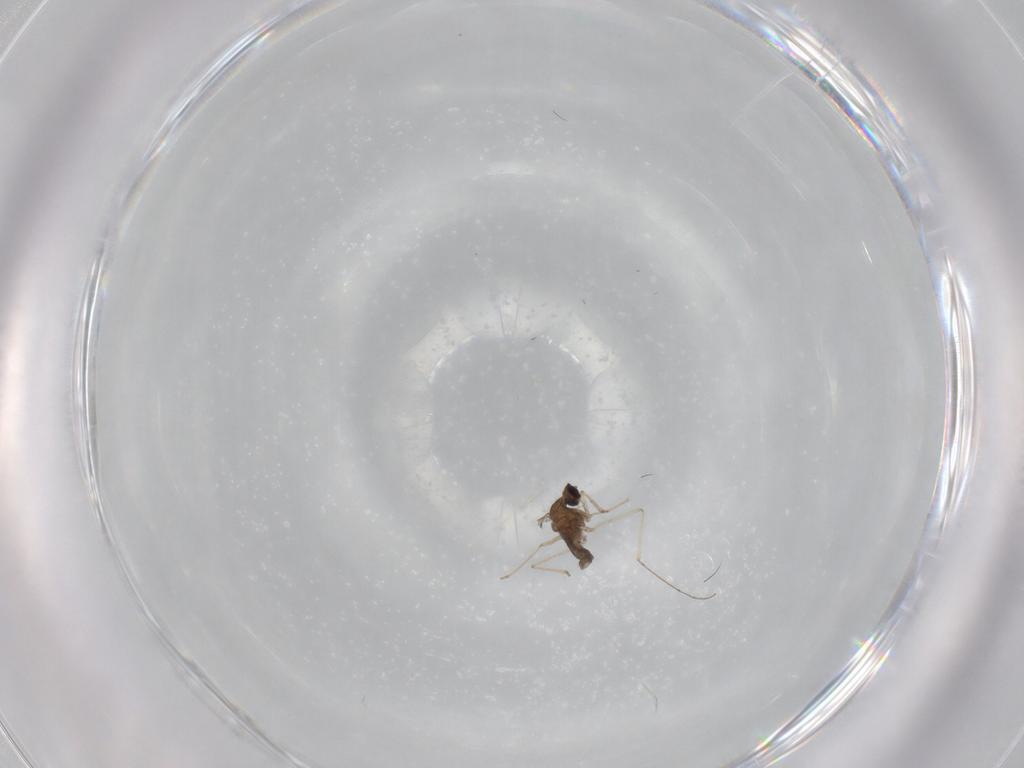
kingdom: Animalia
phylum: Arthropoda
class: Insecta
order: Diptera
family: Cecidomyiidae
